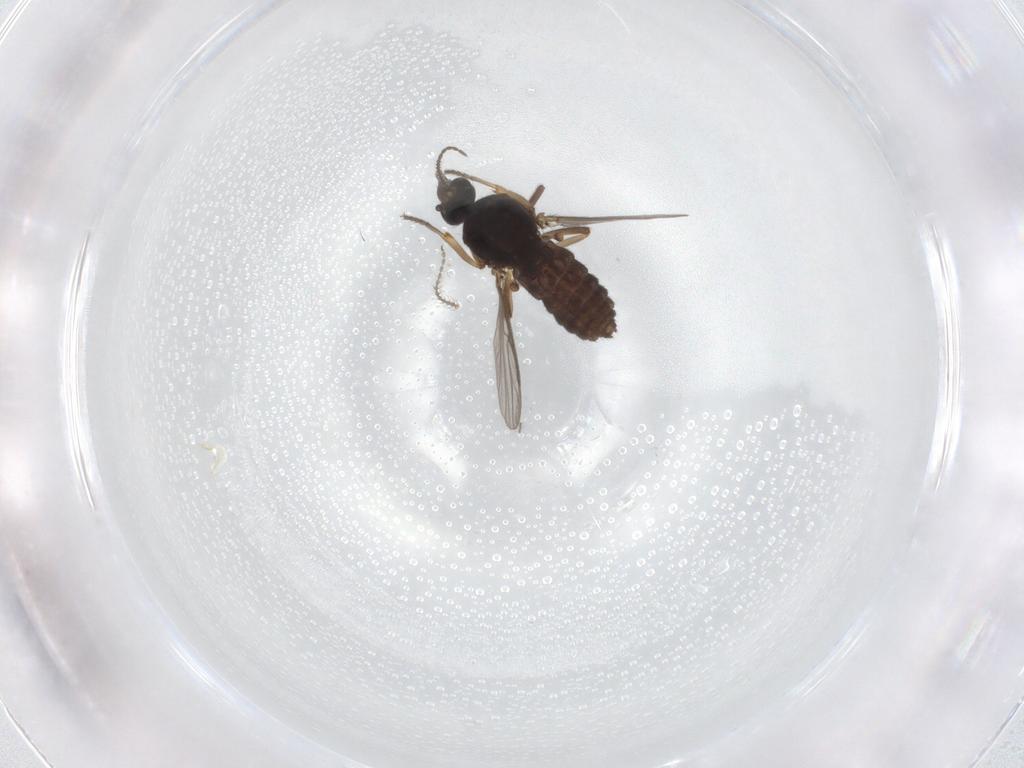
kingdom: Animalia
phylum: Arthropoda
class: Insecta
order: Diptera
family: Ceratopogonidae
